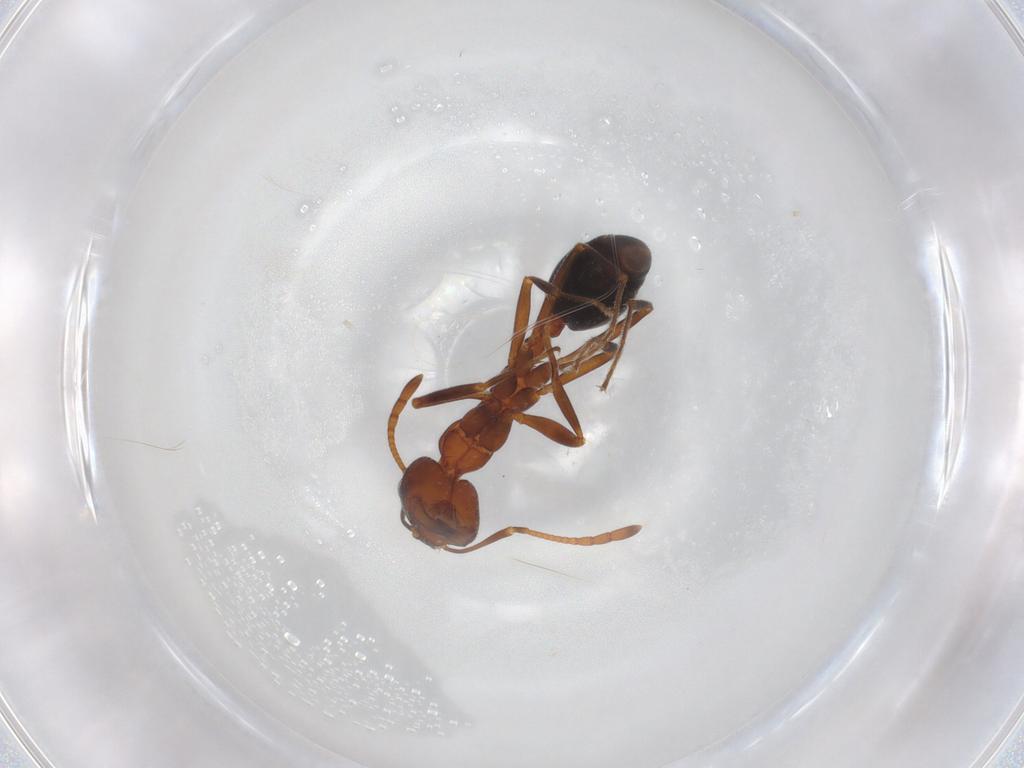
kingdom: Animalia
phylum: Arthropoda
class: Insecta
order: Hymenoptera
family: Formicidae
